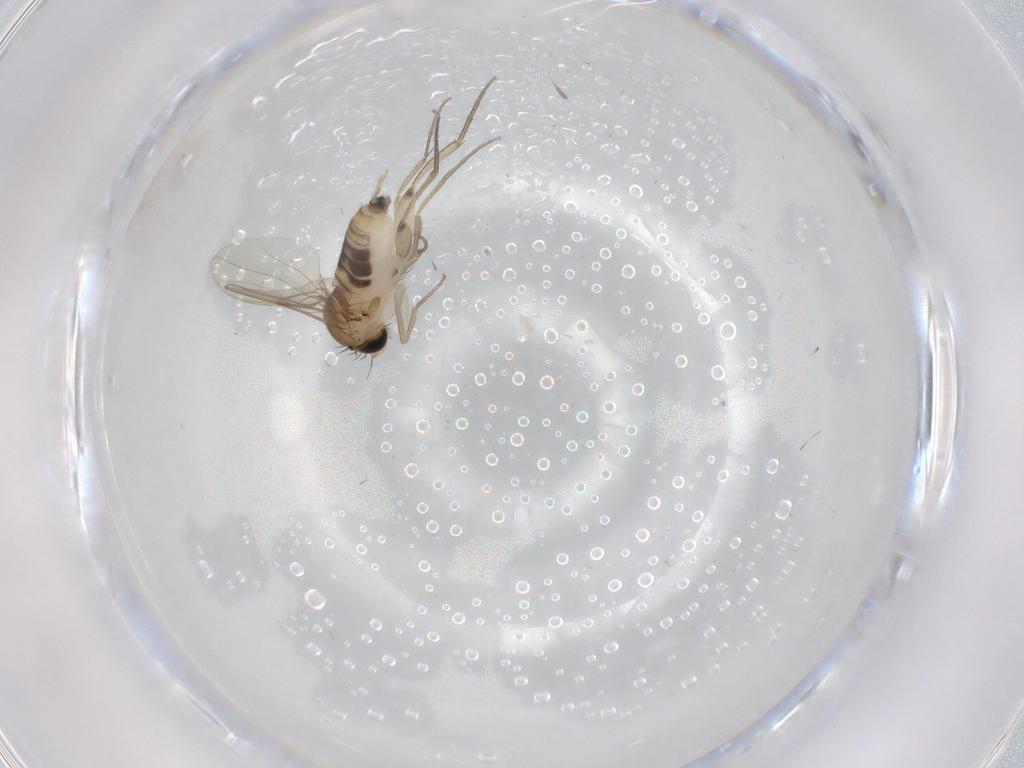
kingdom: Animalia
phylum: Arthropoda
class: Insecta
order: Diptera
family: Phoridae
